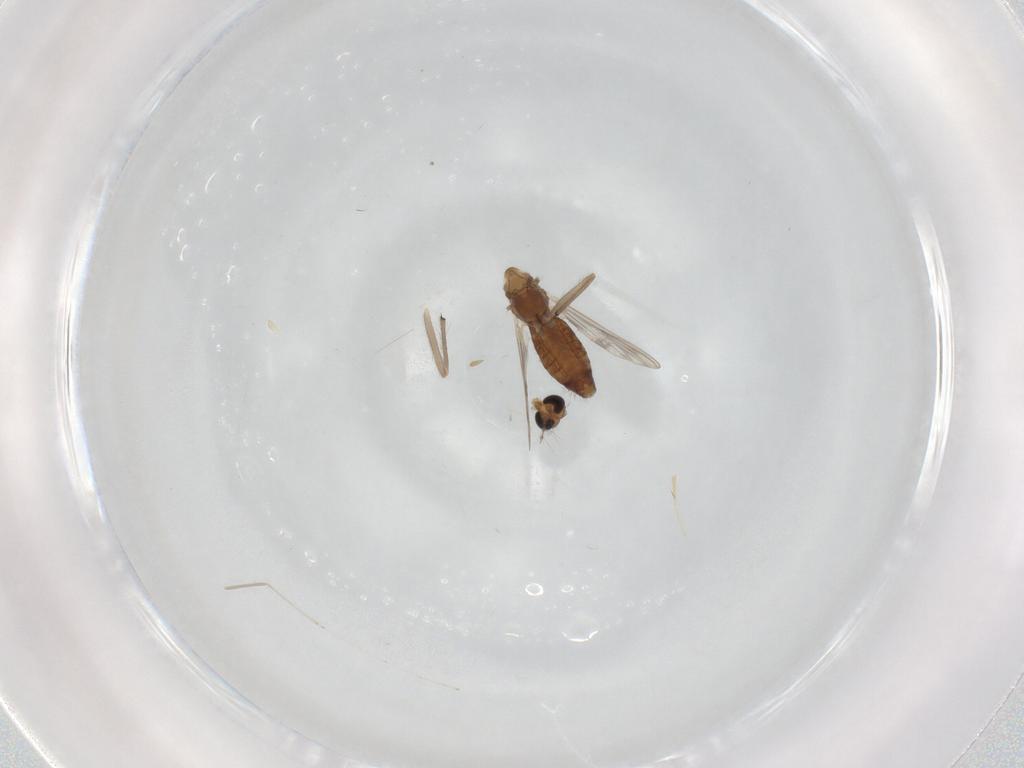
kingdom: Animalia
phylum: Arthropoda
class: Insecta
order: Diptera
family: Chironomidae
